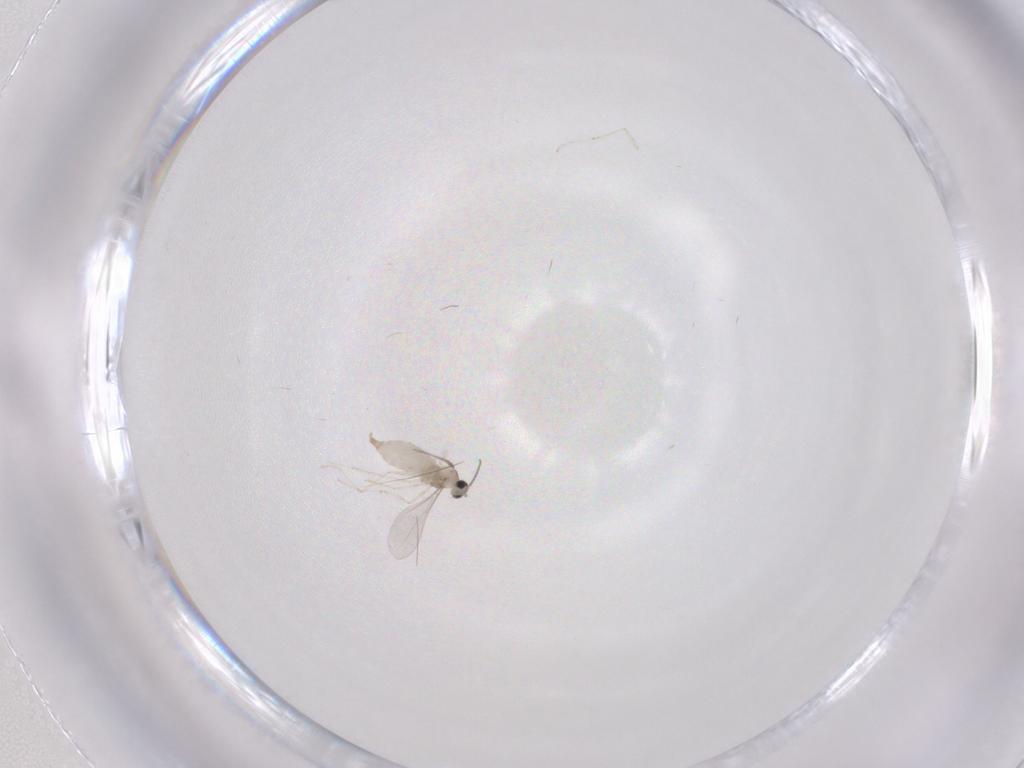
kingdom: Animalia
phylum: Arthropoda
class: Insecta
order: Diptera
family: Cecidomyiidae
